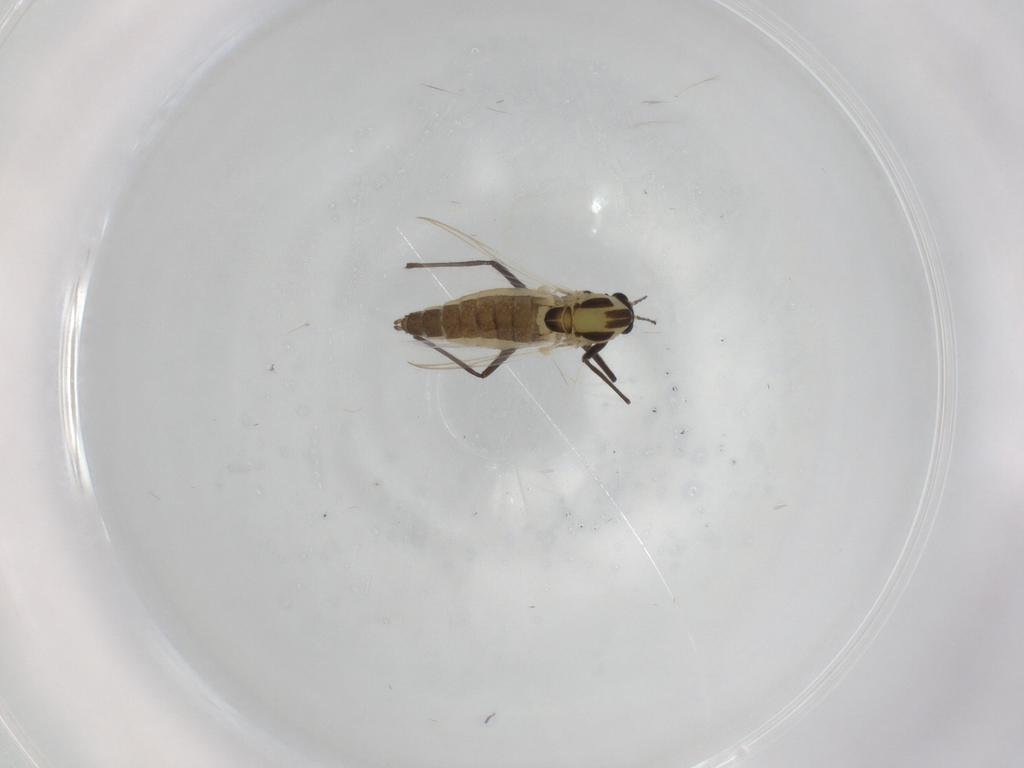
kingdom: Animalia
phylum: Arthropoda
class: Insecta
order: Diptera
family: Chironomidae
